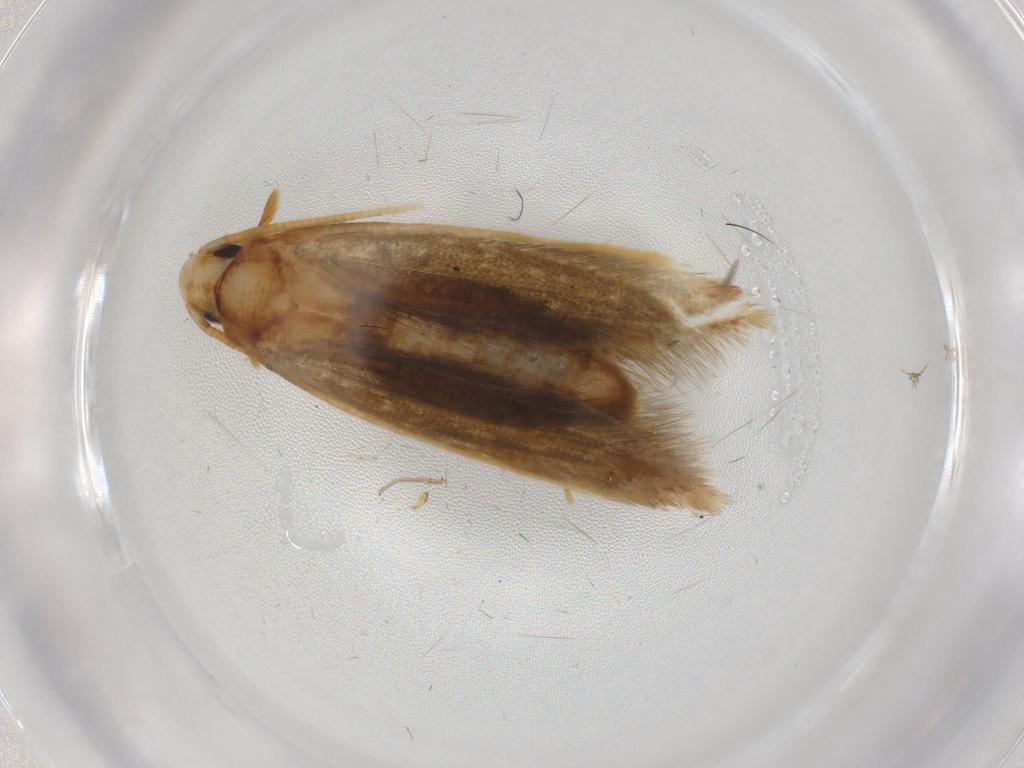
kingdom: Animalia
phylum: Arthropoda
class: Insecta
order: Lepidoptera
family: Tineidae
